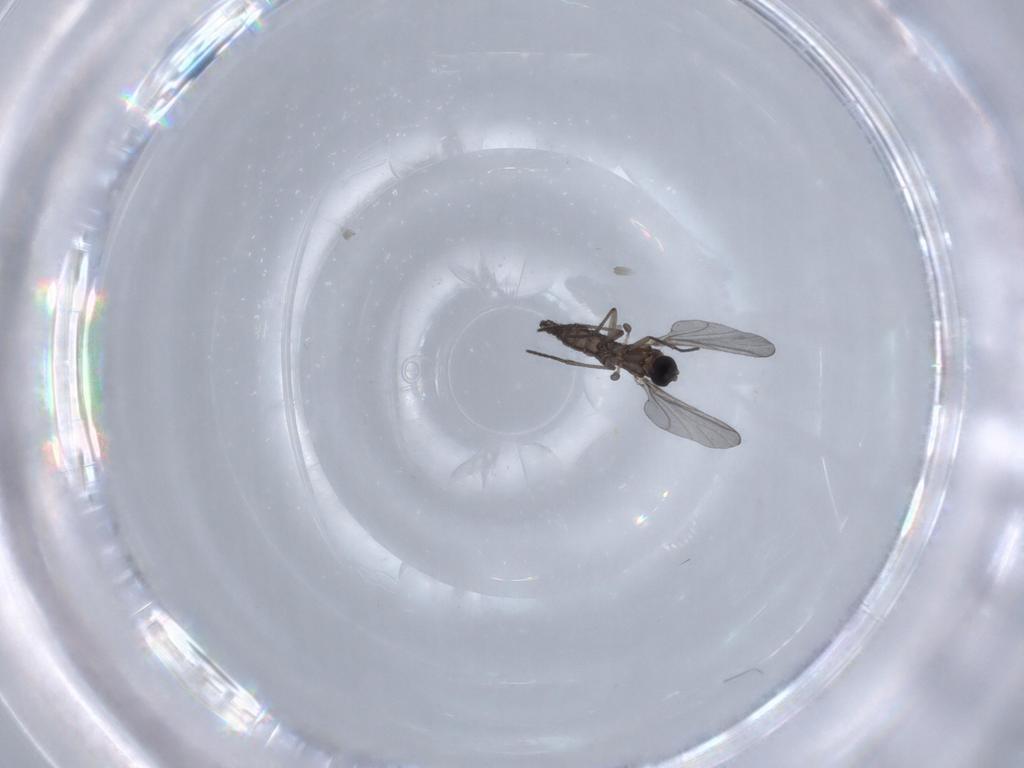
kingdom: Animalia
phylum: Arthropoda
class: Insecta
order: Diptera
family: Sciaridae
